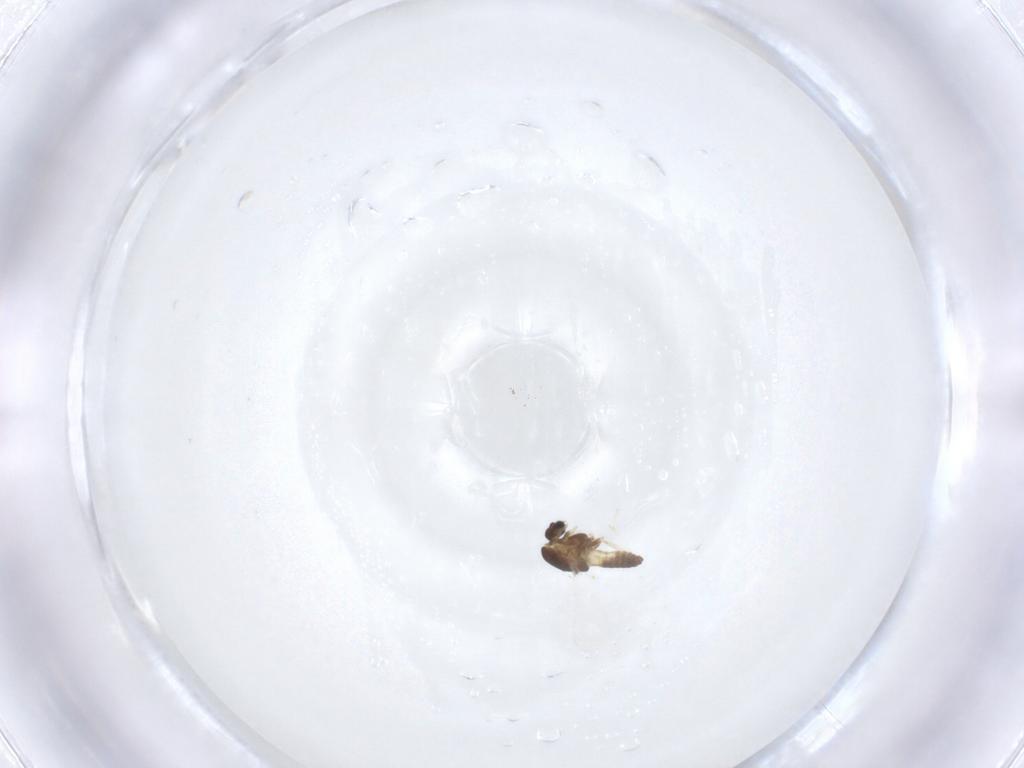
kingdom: Animalia
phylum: Arthropoda
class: Insecta
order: Diptera
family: Chironomidae
